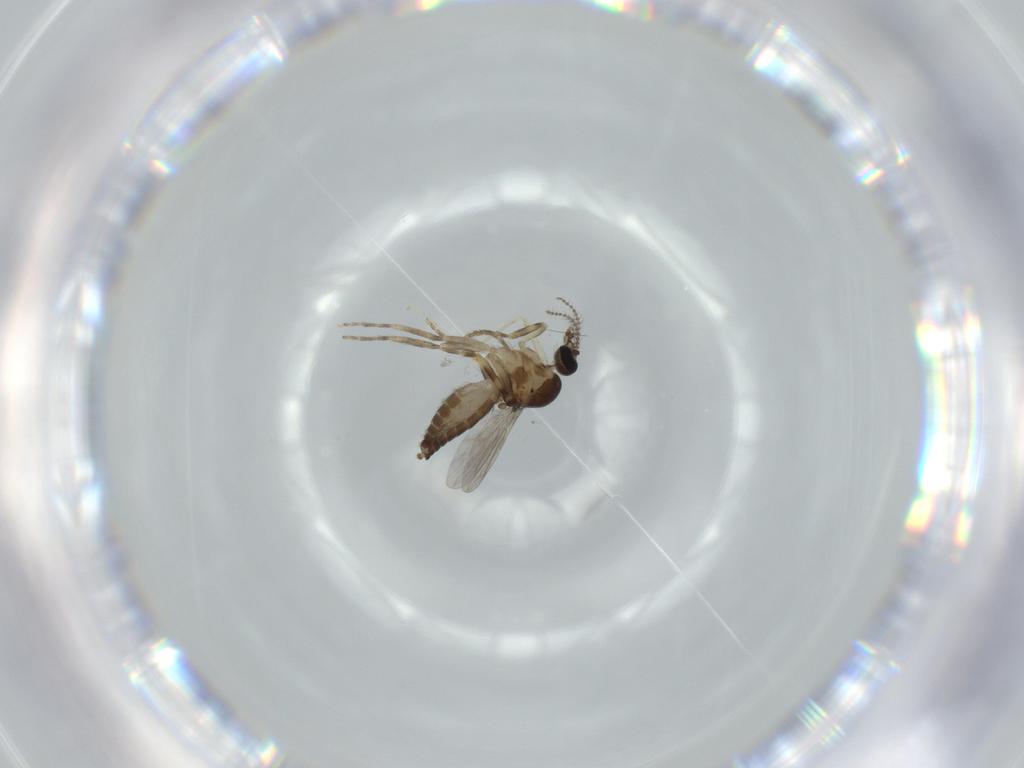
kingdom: Animalia
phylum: Arthropoda
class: Insecta
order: Diptera
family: Ceratopogonidae
